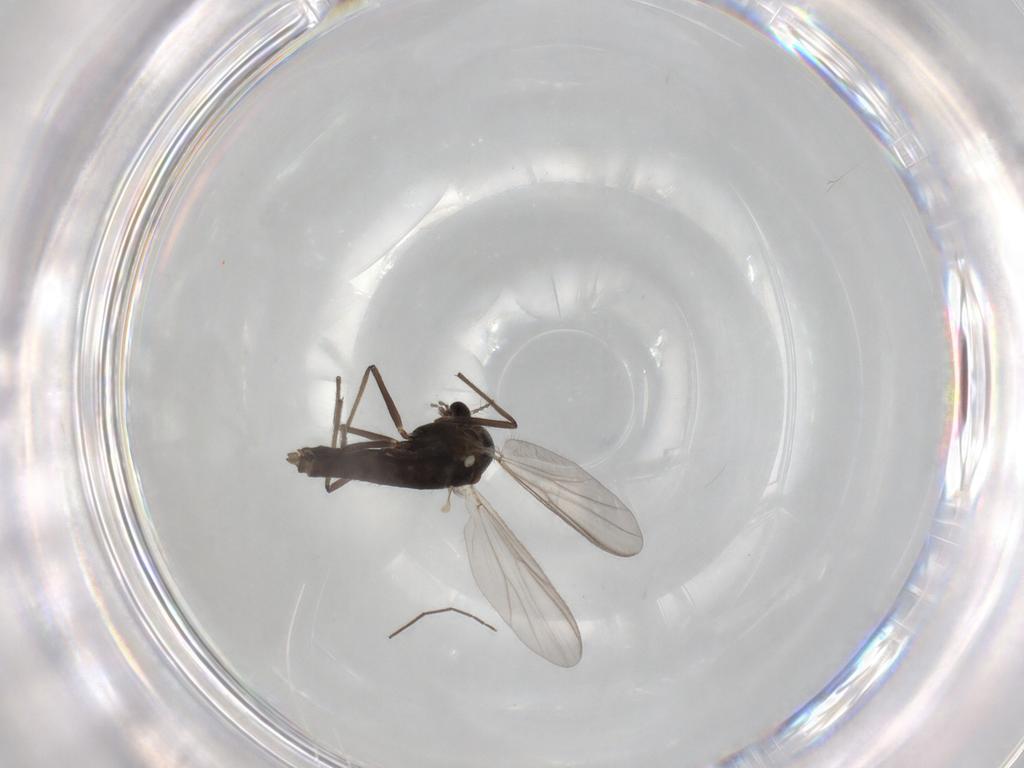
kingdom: Animalia
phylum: Arthropoda
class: Insecta
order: Diptera
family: Chironomidae
